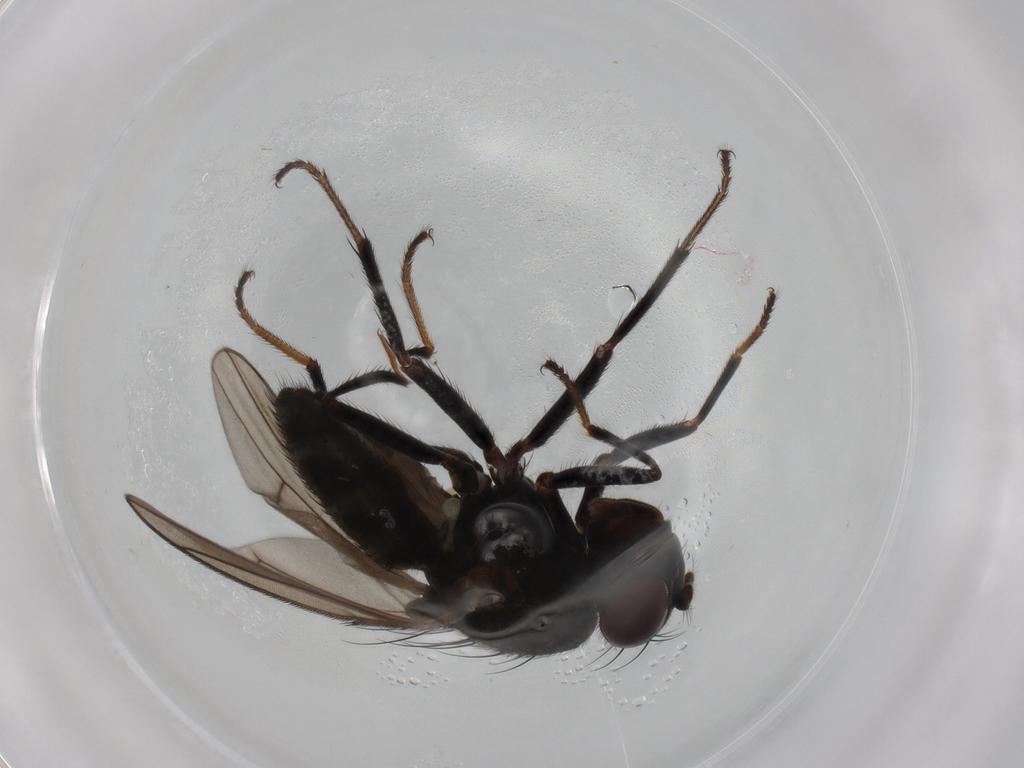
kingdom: Animalia
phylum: Arthropoda
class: Insecta
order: Diptera
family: Ephydridae
